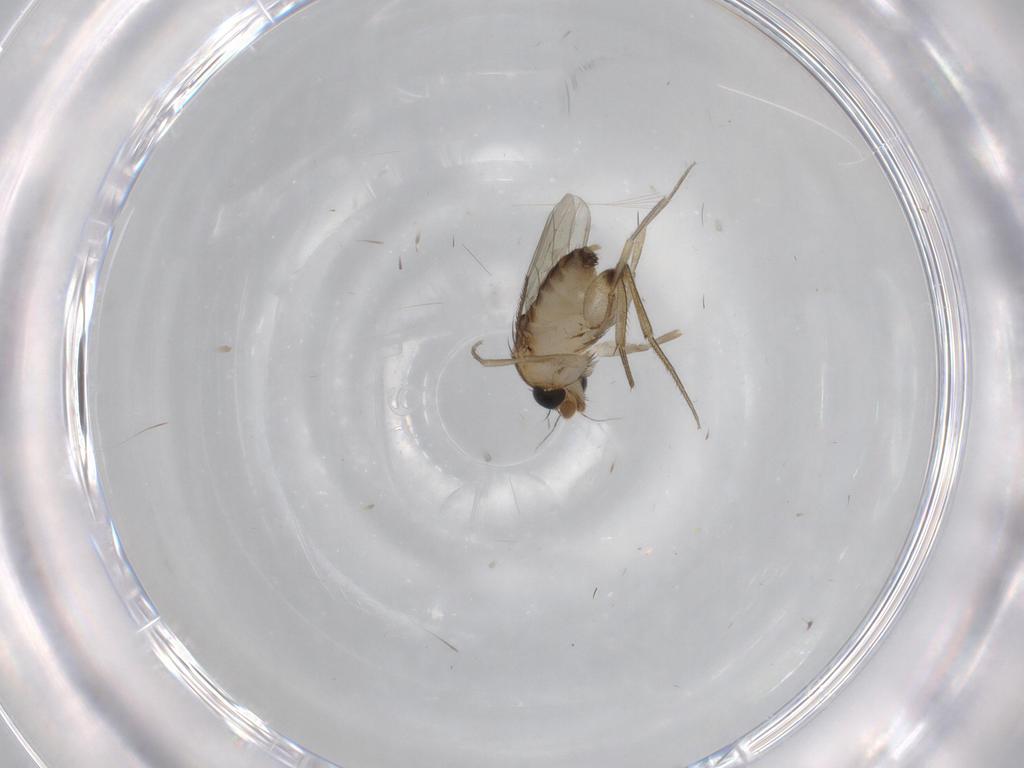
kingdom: Animalia
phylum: Arthropoda
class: Insecta
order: Diptera
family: Phoridae
